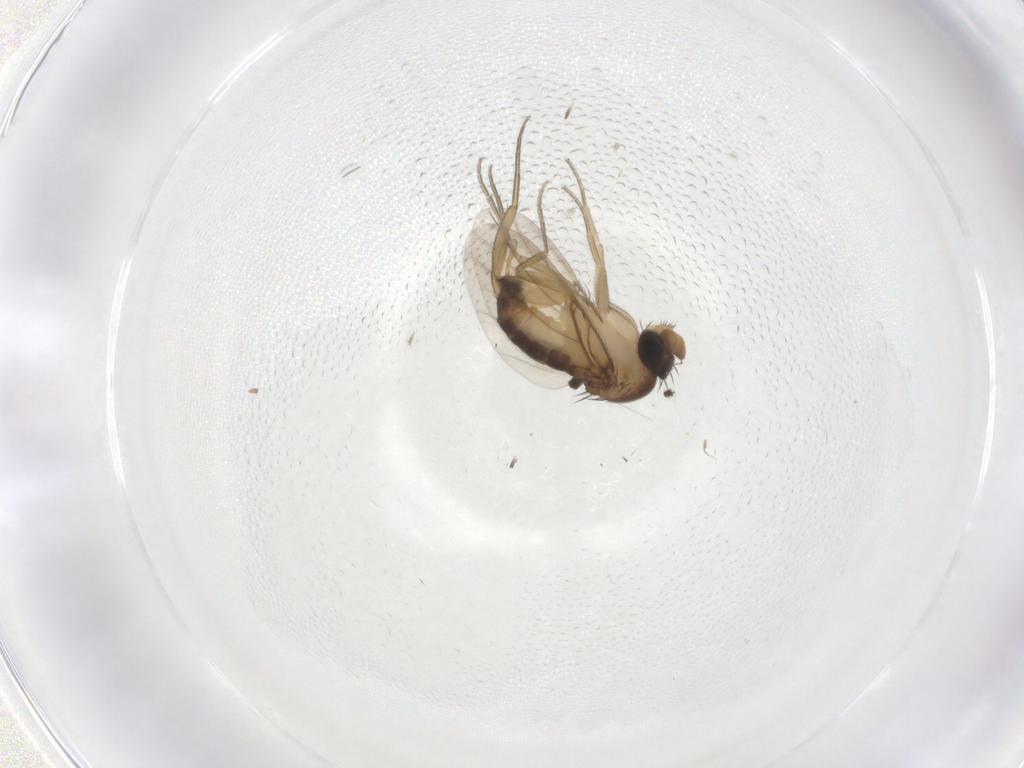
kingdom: Animalia
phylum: Arthropoda
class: Insecta
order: Diptera
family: Phoridae
